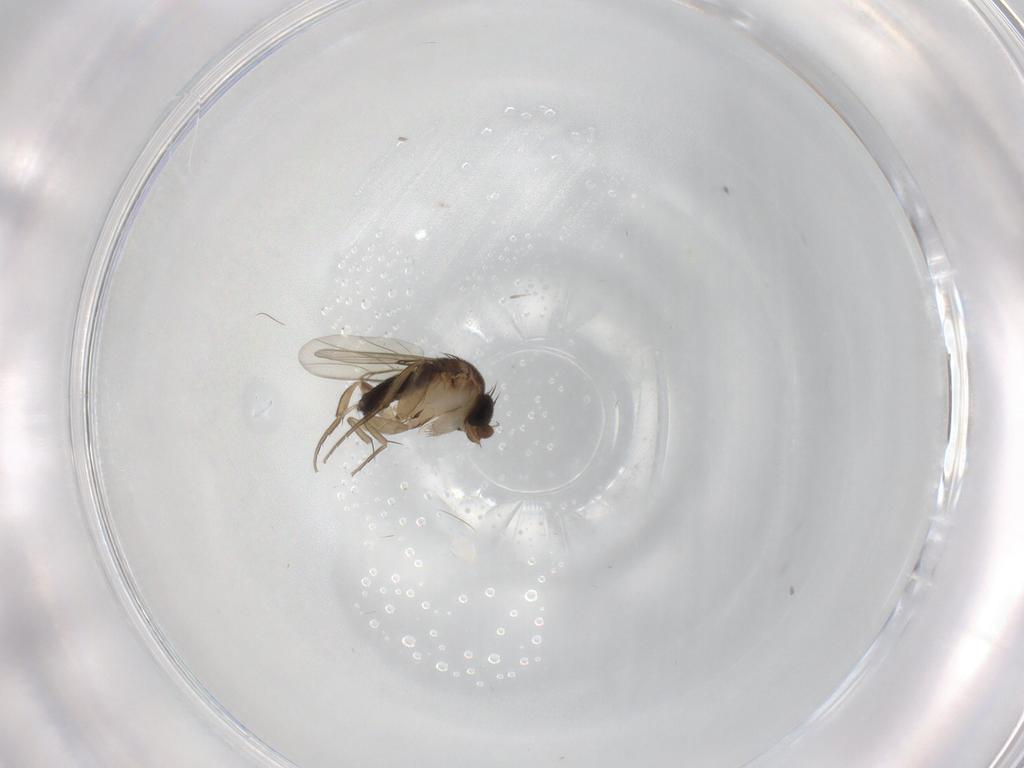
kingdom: Animalia
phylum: Arthropoda
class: Insecta
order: Diptera
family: Phoridae
